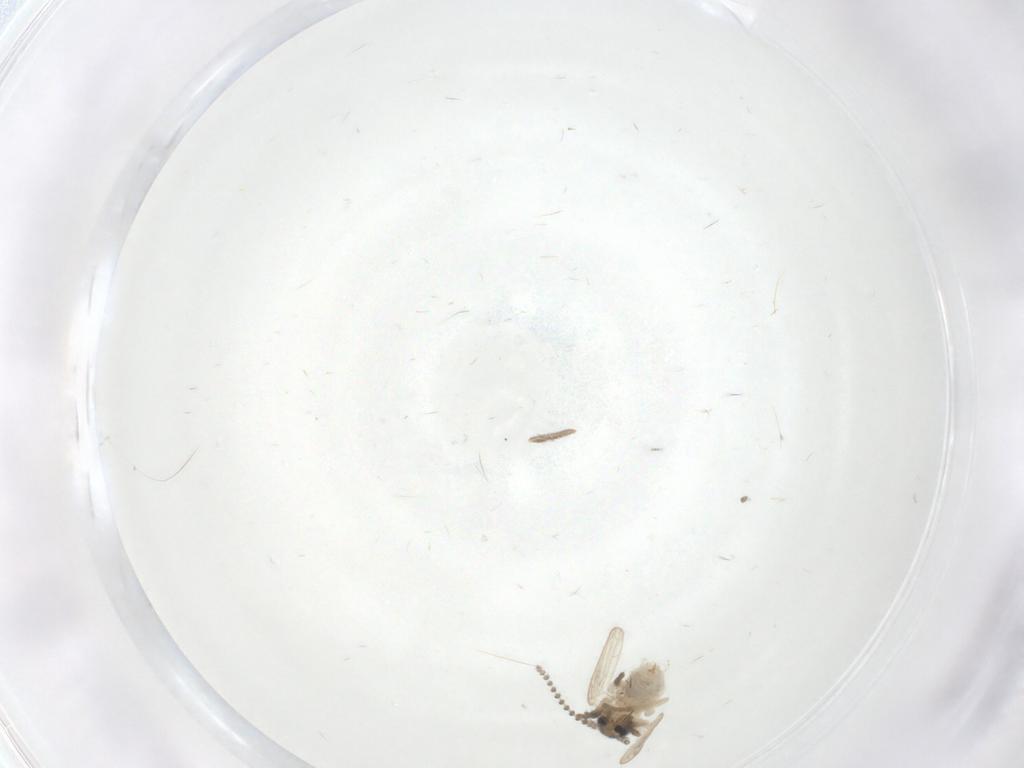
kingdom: Animalia
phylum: Arthropoda
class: Insecta
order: Diptera
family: Psychodidae
